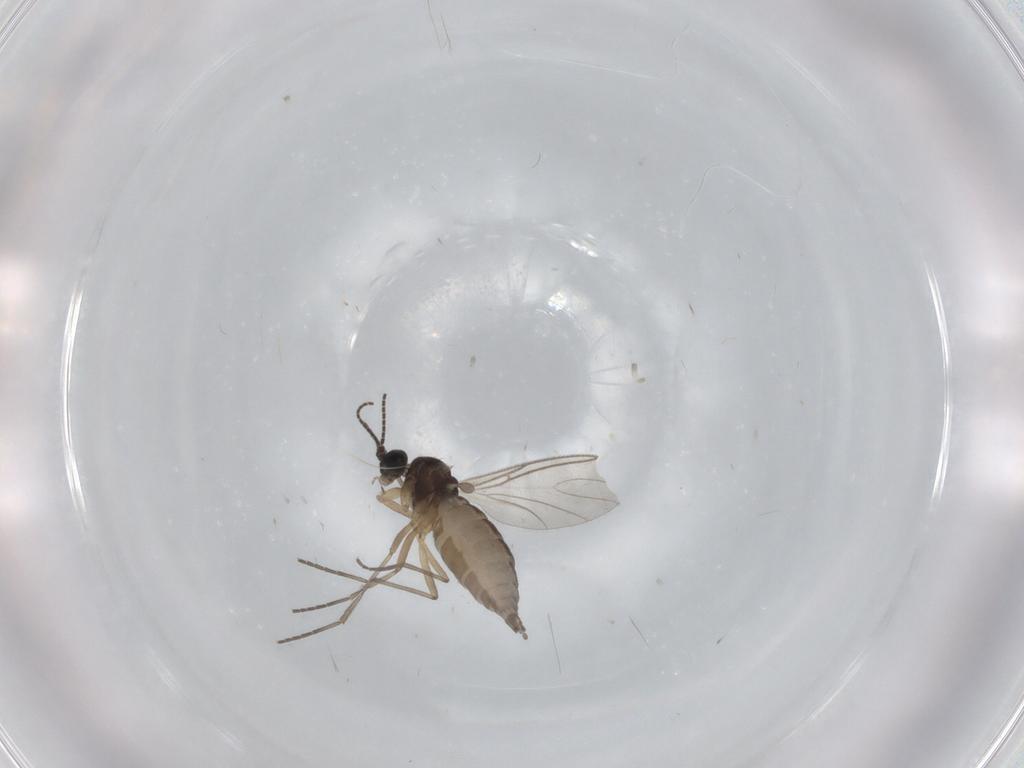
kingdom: Animalia
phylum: Arthropoda
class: Insecta
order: Diptera
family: Sciaridae
